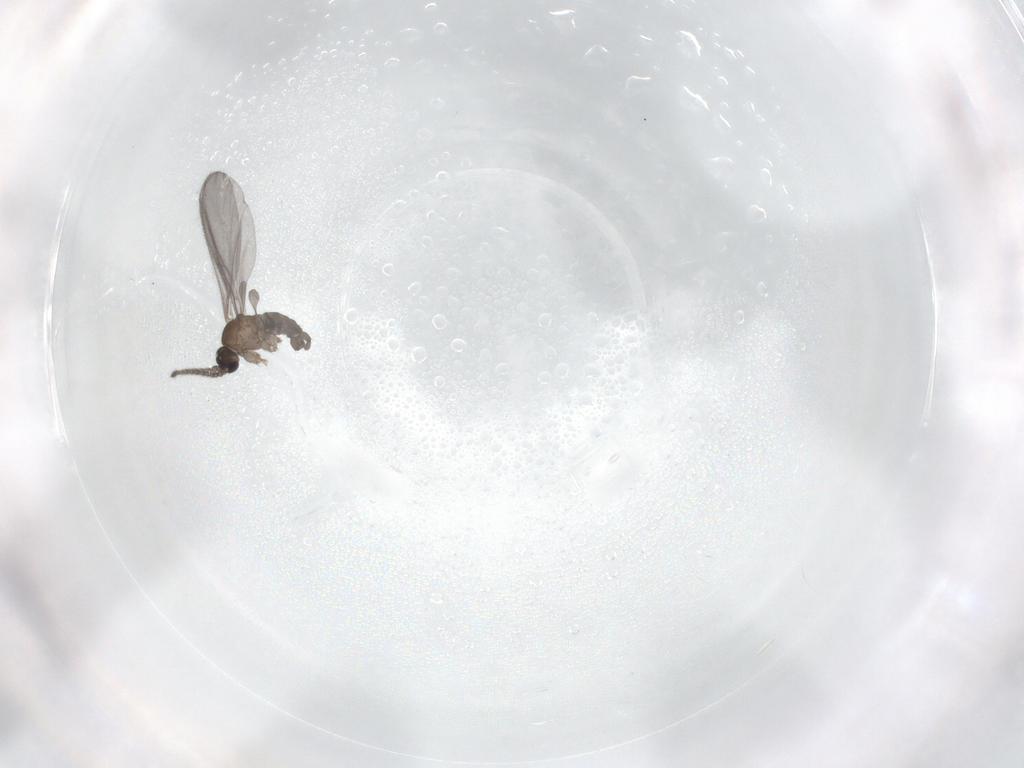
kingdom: Animalia
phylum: Arthropoda
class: Insecta
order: Diptera
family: Sciaridae
